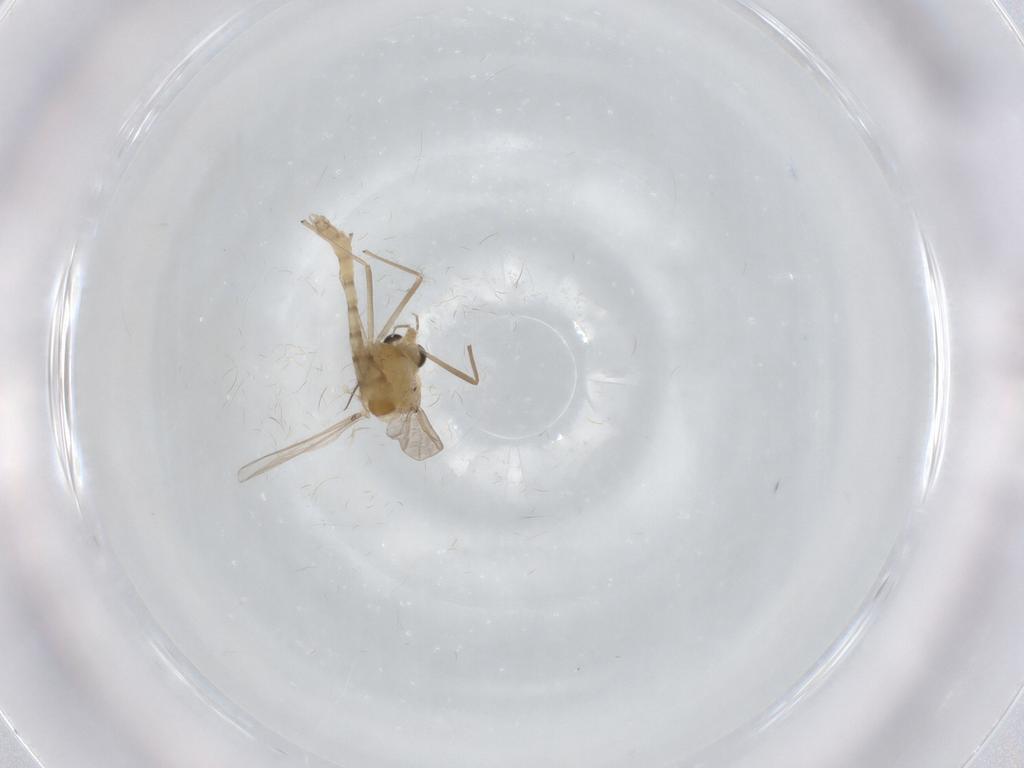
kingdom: Animalia
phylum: Arthropoda
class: Insecta
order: Diptera
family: Chironomidae
